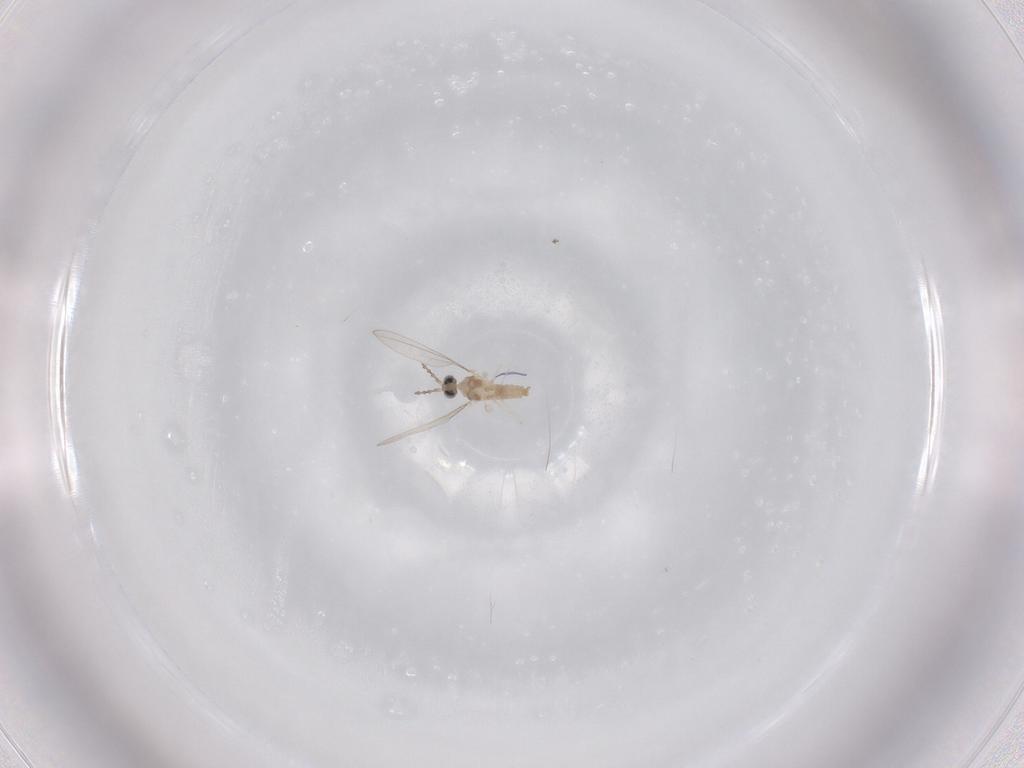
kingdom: Animalia
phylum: Arthropoda
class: Insecta
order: Diptera
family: Cecidomyiidae
